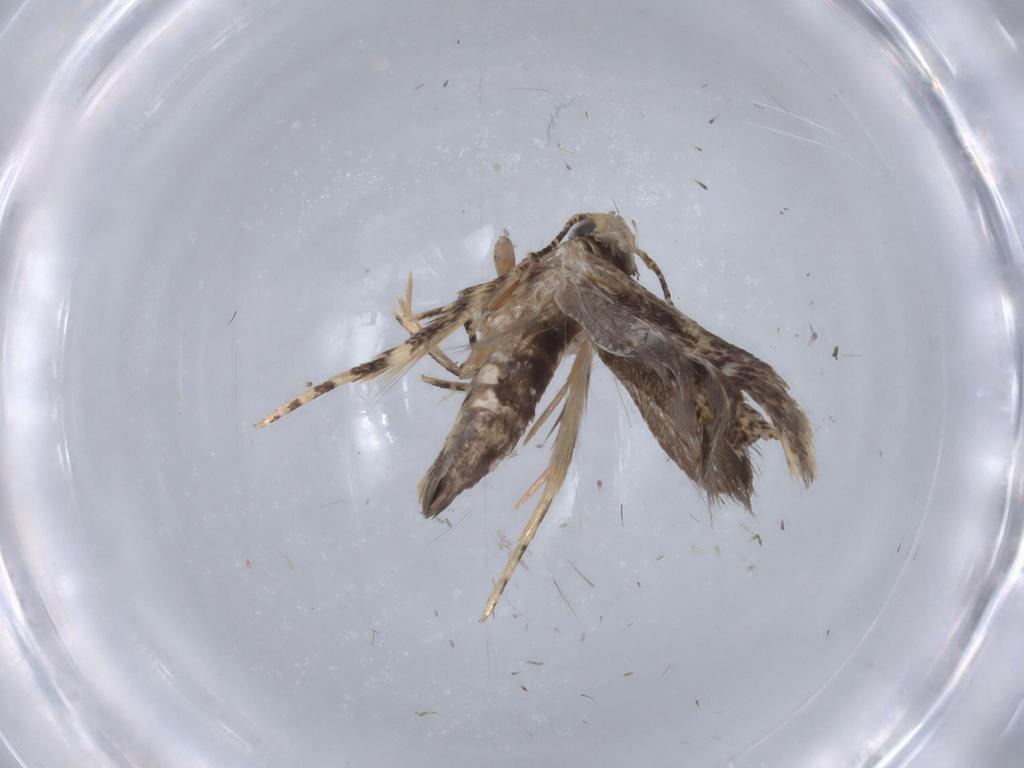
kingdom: Animalia
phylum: Arthropoda
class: Insecta
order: Lepidoptera
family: Gelechiidae
